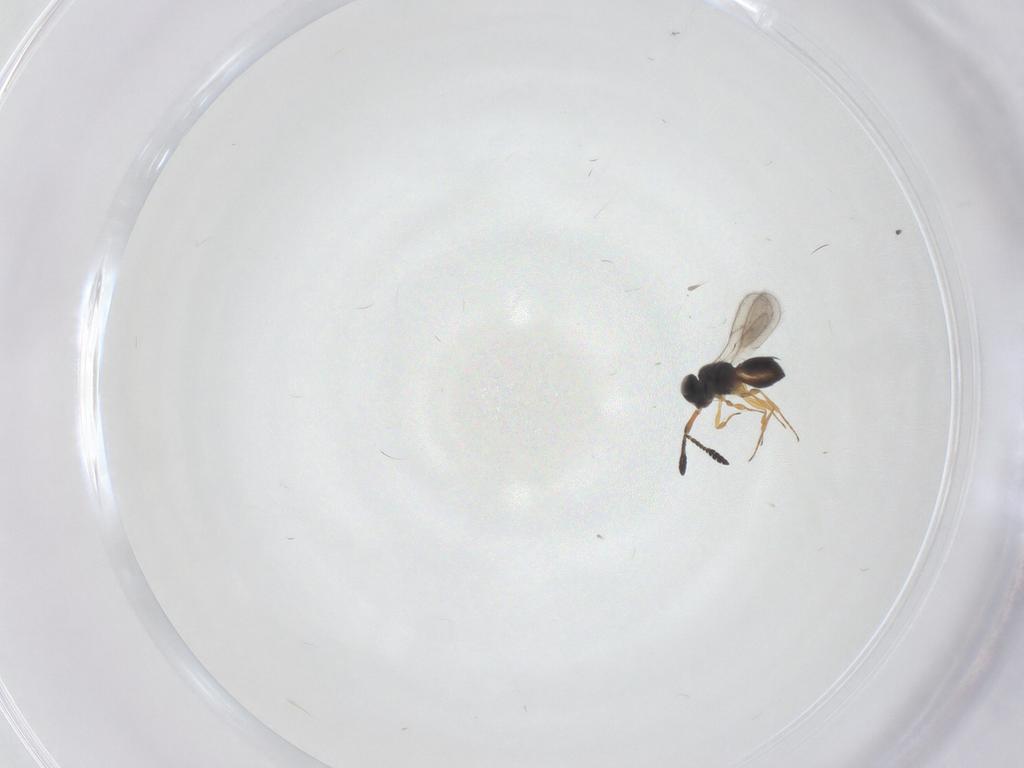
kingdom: Animalia
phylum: Arthropoda
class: Insecta
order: Hymenoptera
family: Scelionidae
